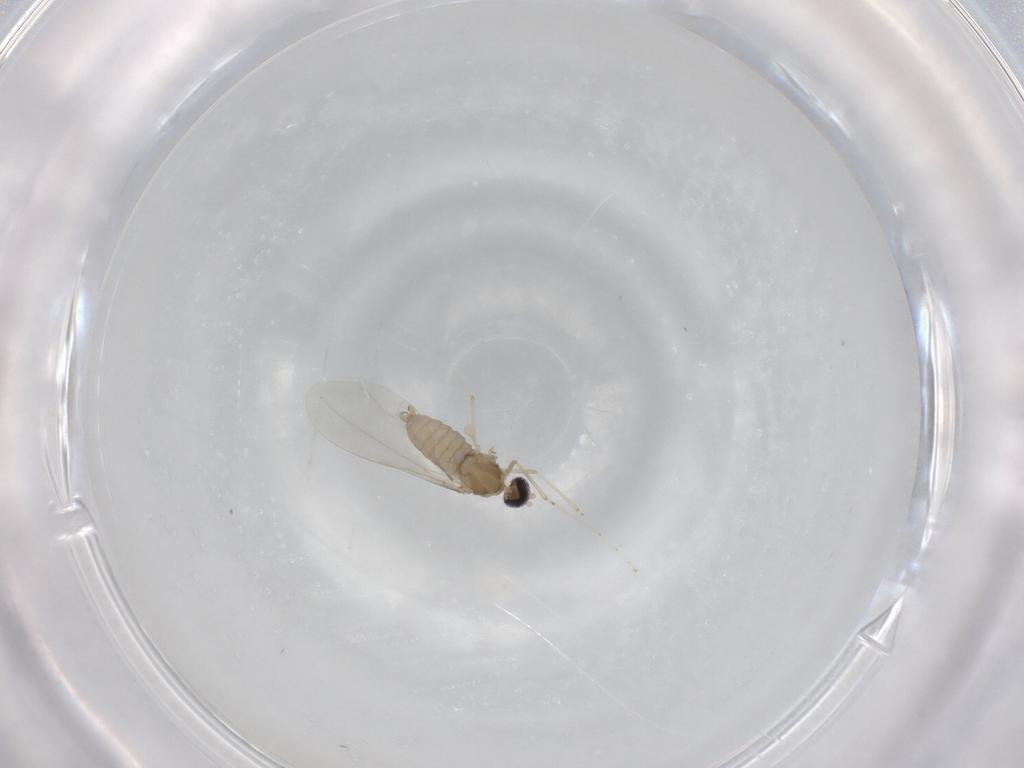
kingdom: Animalia
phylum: Arthropoda
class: Insecta
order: Diptera
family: Cecidomyiidae
